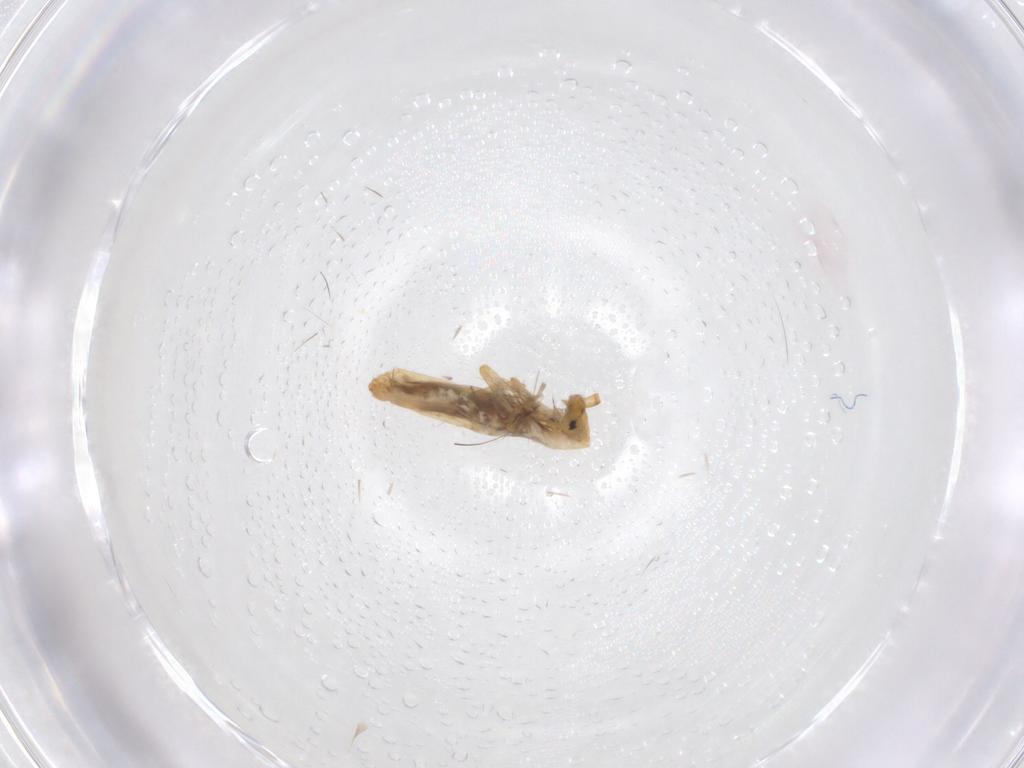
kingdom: Animalia
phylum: Arthropoda
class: Collembola
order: Entomobryomorpha
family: Entomobryidae
